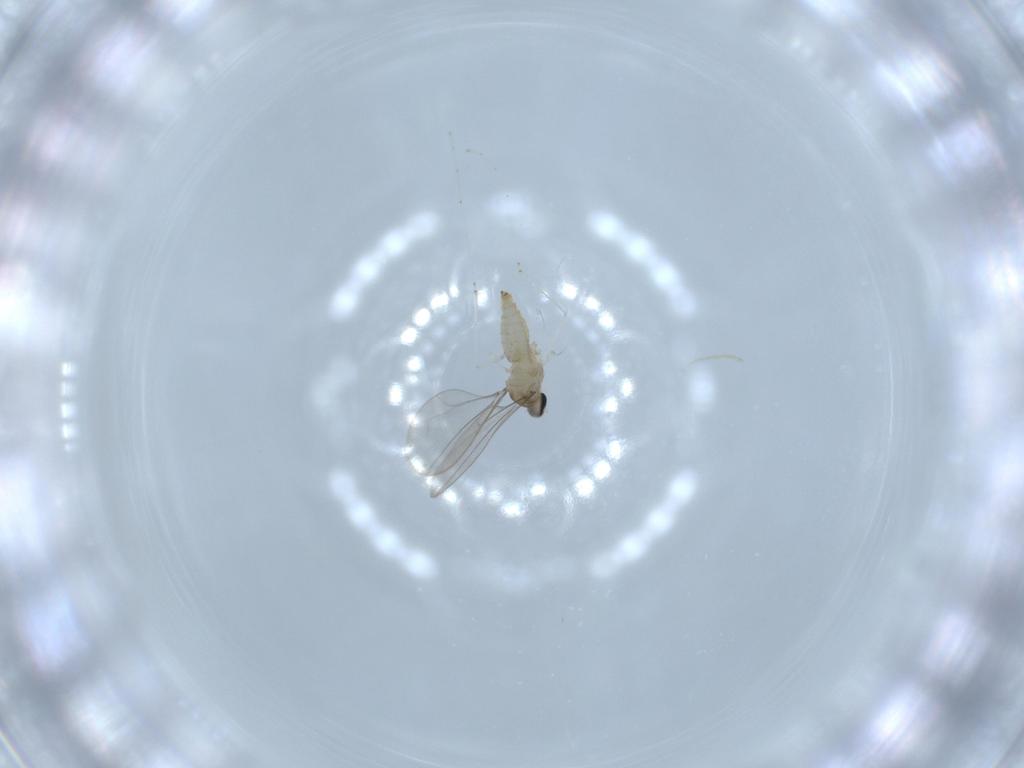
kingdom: Animalia
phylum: Arthropoda
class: Insecta
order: Diptera
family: Cecidomyiidae
